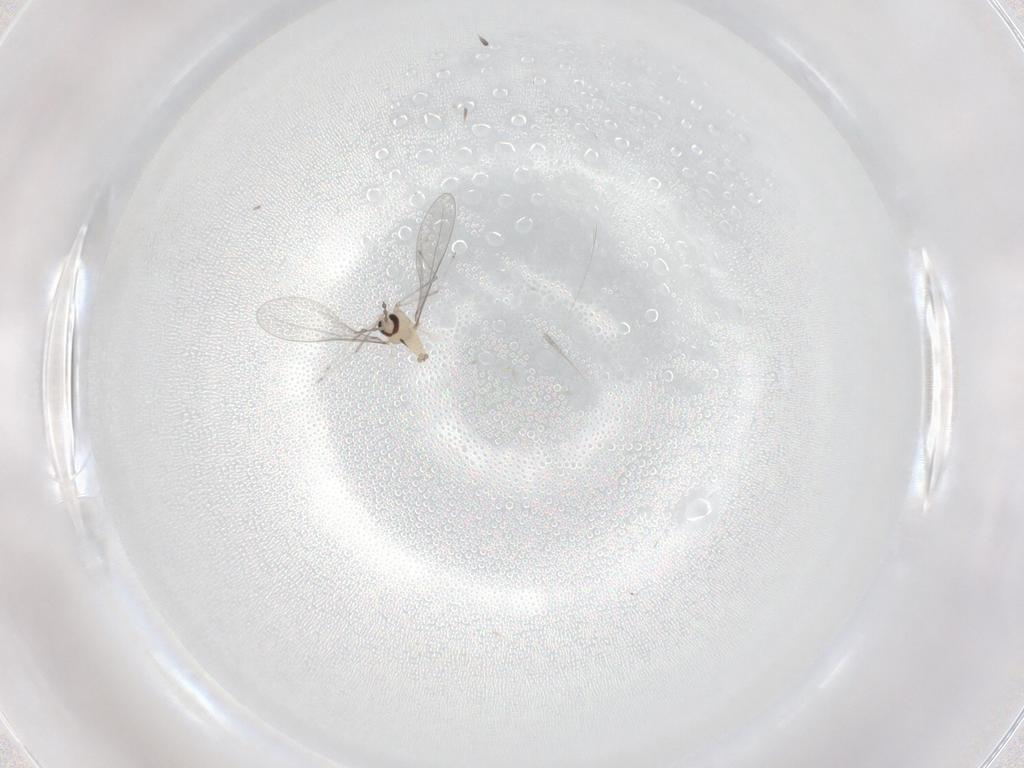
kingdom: Animalia
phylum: Arthropoda
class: Insecta
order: Diptera
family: Cecidomyiidae
